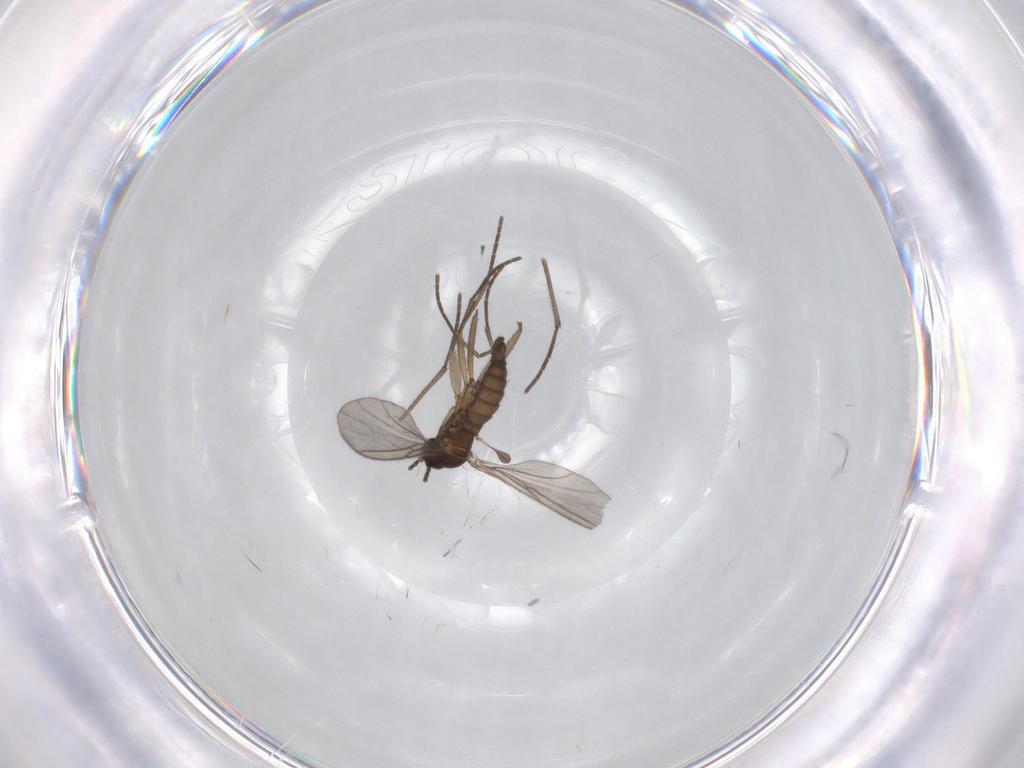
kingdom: Animalia
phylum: Arthropoda
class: Insecta
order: Diptera
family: Sciaridae
